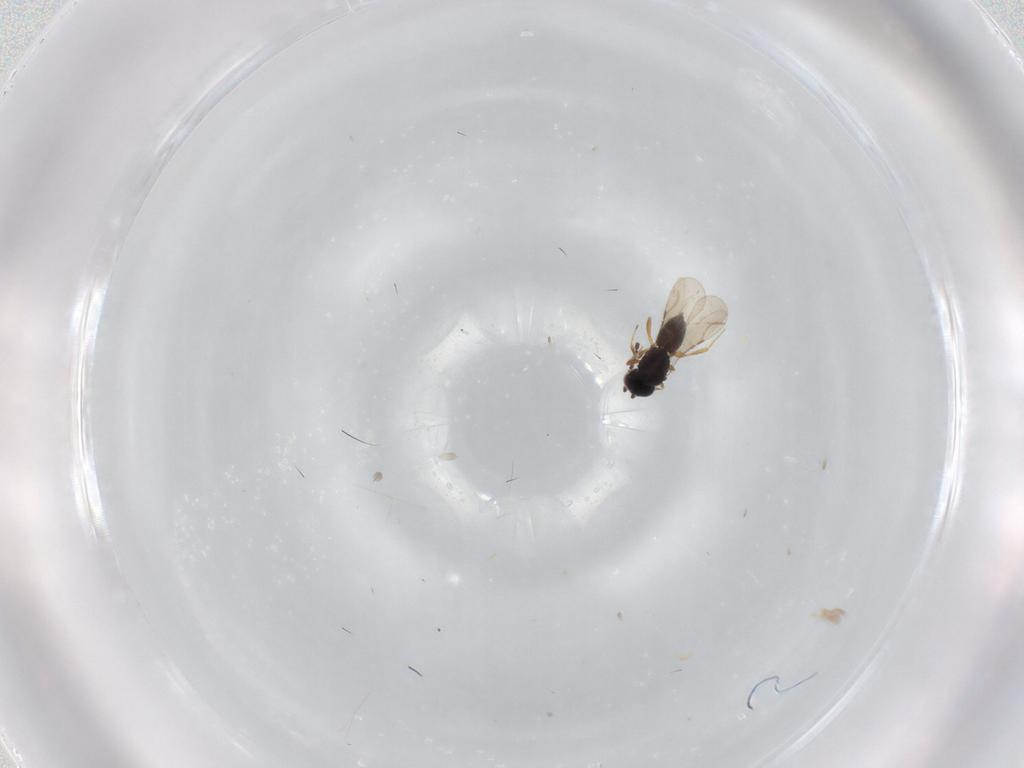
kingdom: Animalia
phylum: Arthropoda
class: Insecta
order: Hymenoptera
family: Ceraphronidae
